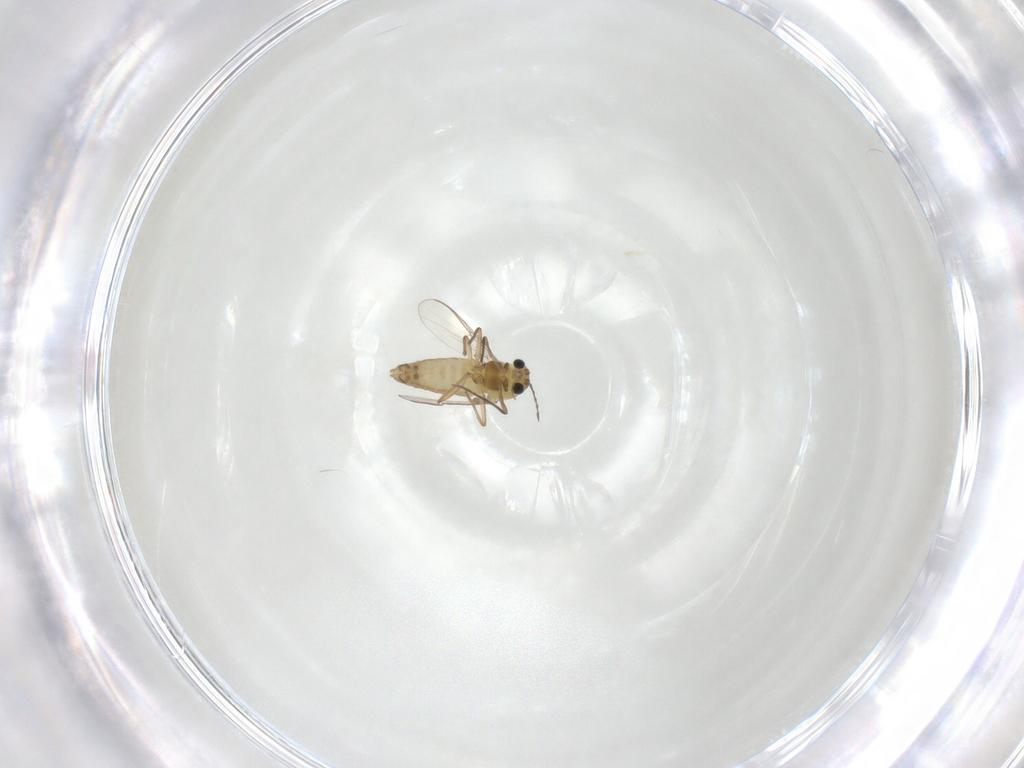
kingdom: Animalia
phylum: Arthropoda
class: Insecta
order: Diptera
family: Chironomidae
